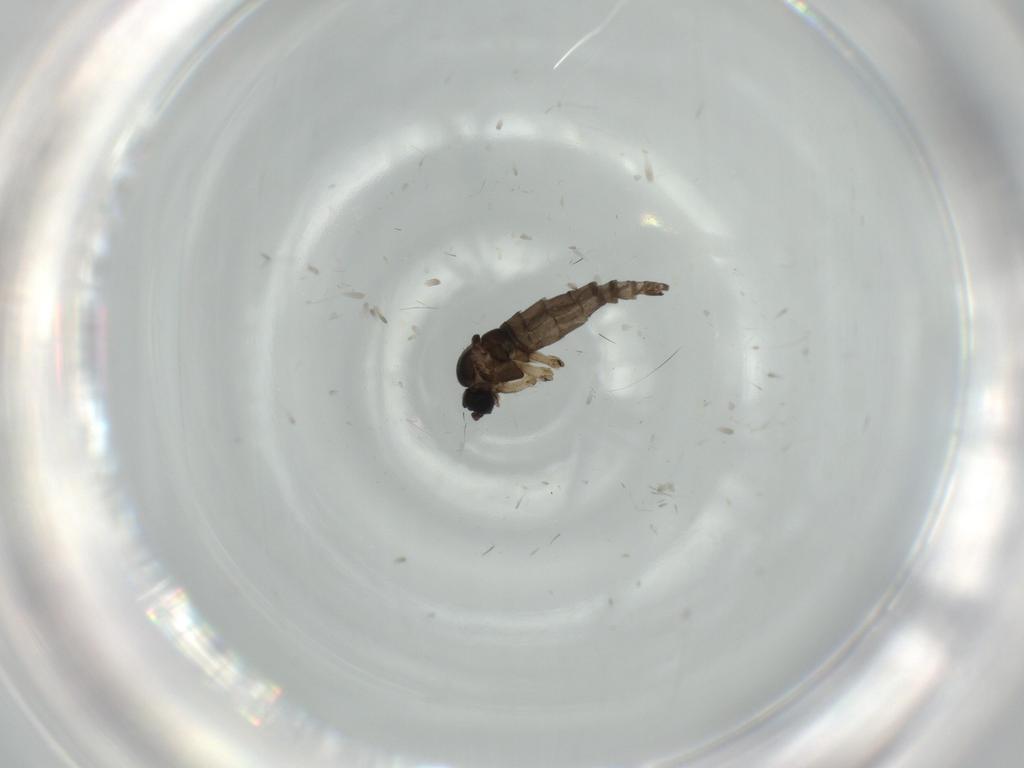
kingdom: Animalia
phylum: Arthropoda
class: Insecta
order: Diptera
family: Sciaridae
